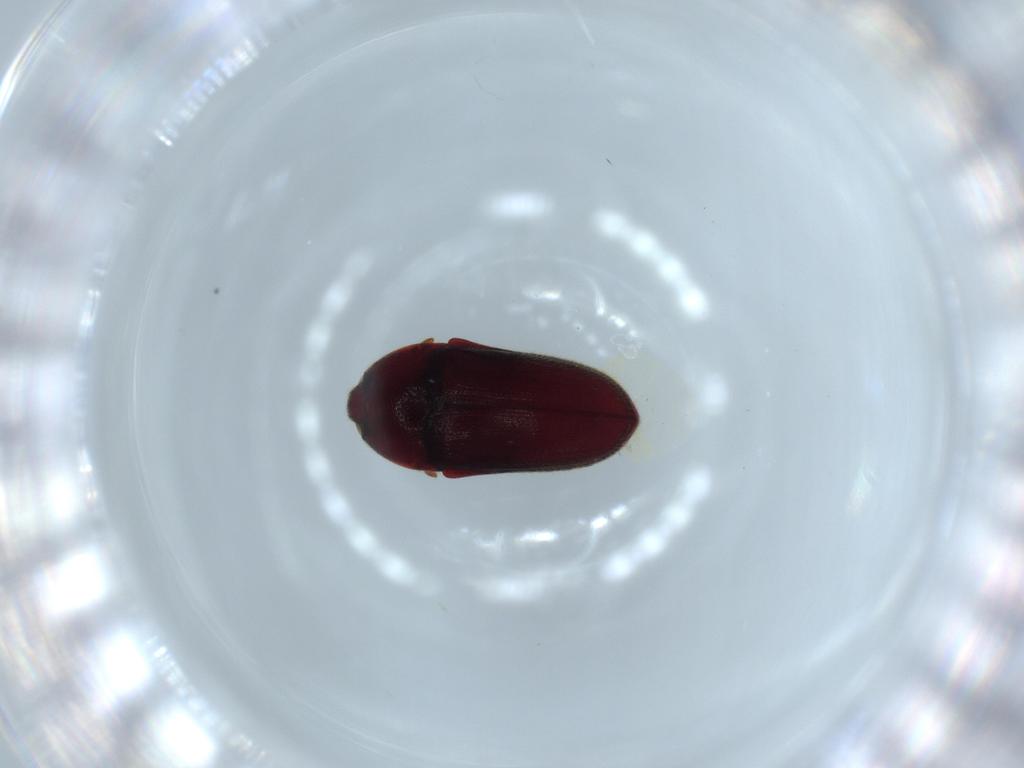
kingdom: Animalia
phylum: Arthropoda
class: Insecta
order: Coleoptera
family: Throscidae
